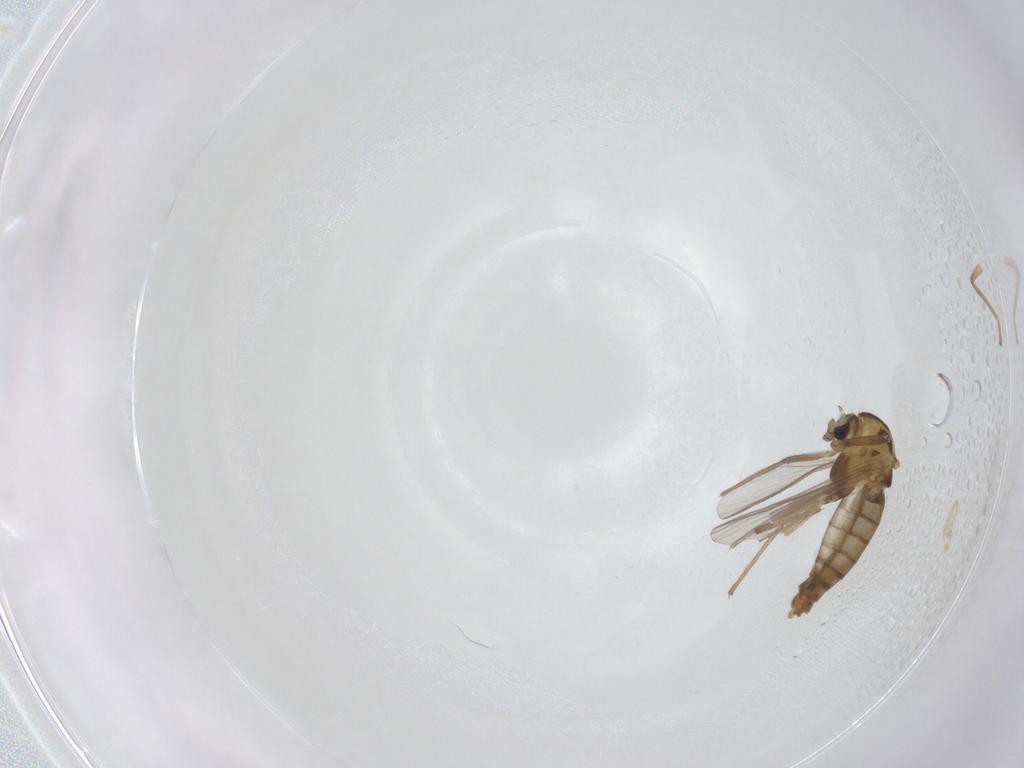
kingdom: Animalia
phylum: Arthropoda
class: Insecta
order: Diptera
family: Chironomidae
